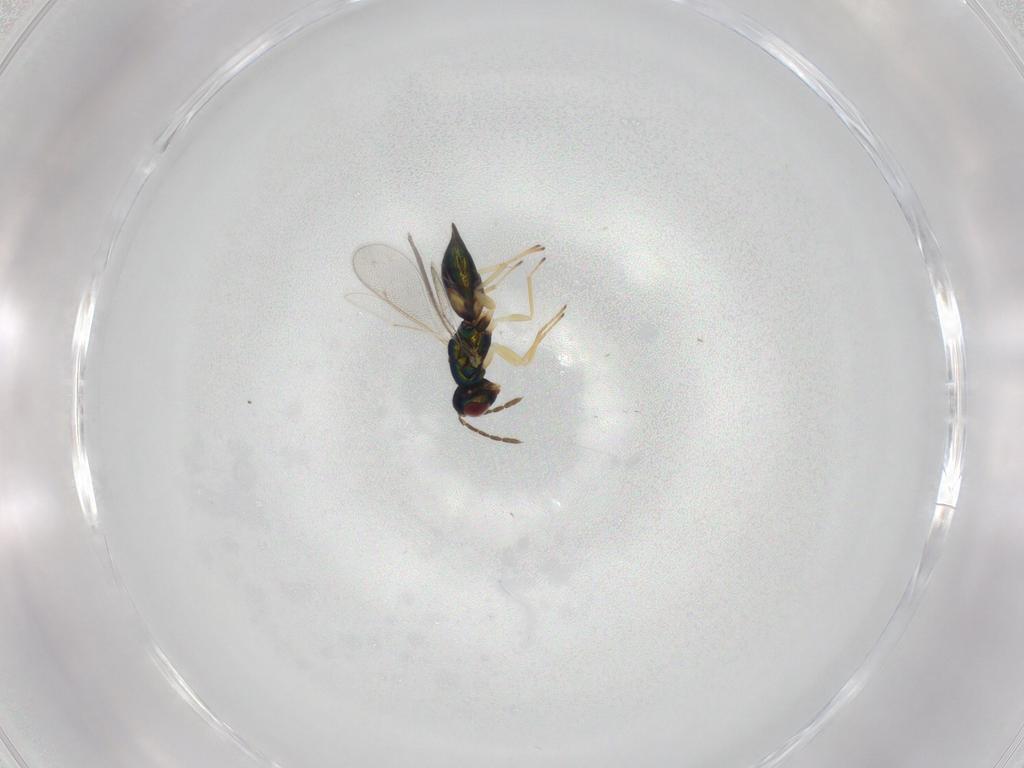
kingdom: Animalia
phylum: Arthropoda
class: Insecta
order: Hymenoptera
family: Eulophidae
